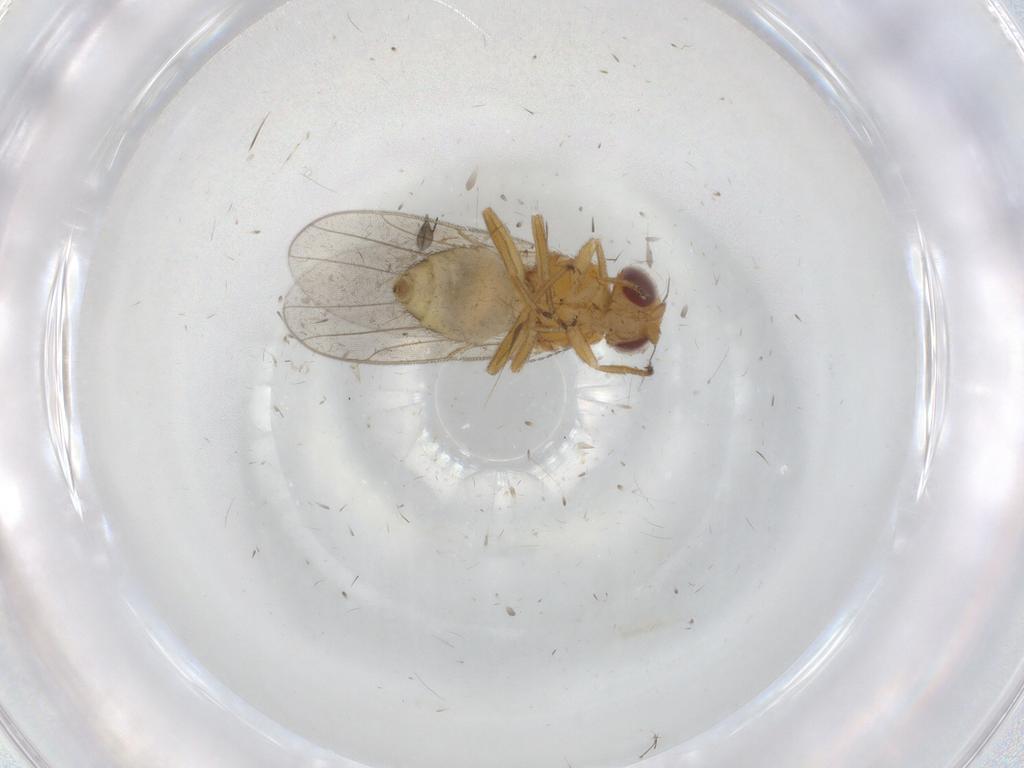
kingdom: Animalia
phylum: Arthropoda
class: Insecta
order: Diptera
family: Chloropidae
